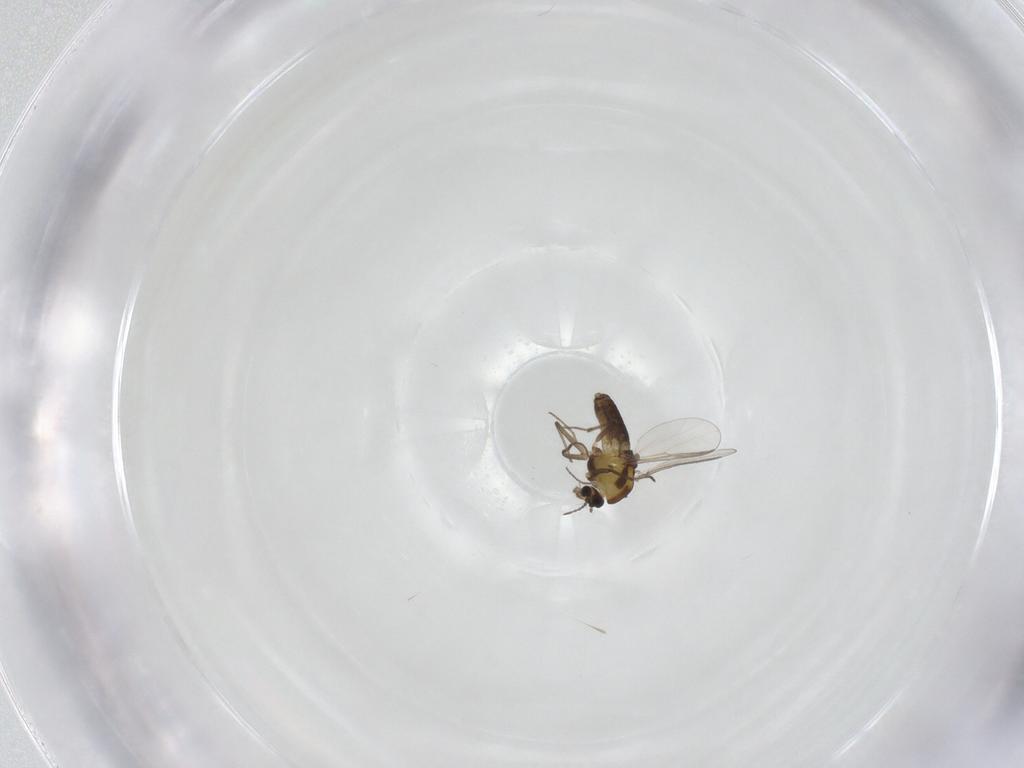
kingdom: Animalia
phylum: Arthropoda
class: Insecta
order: Diptera
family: Chironomidae
